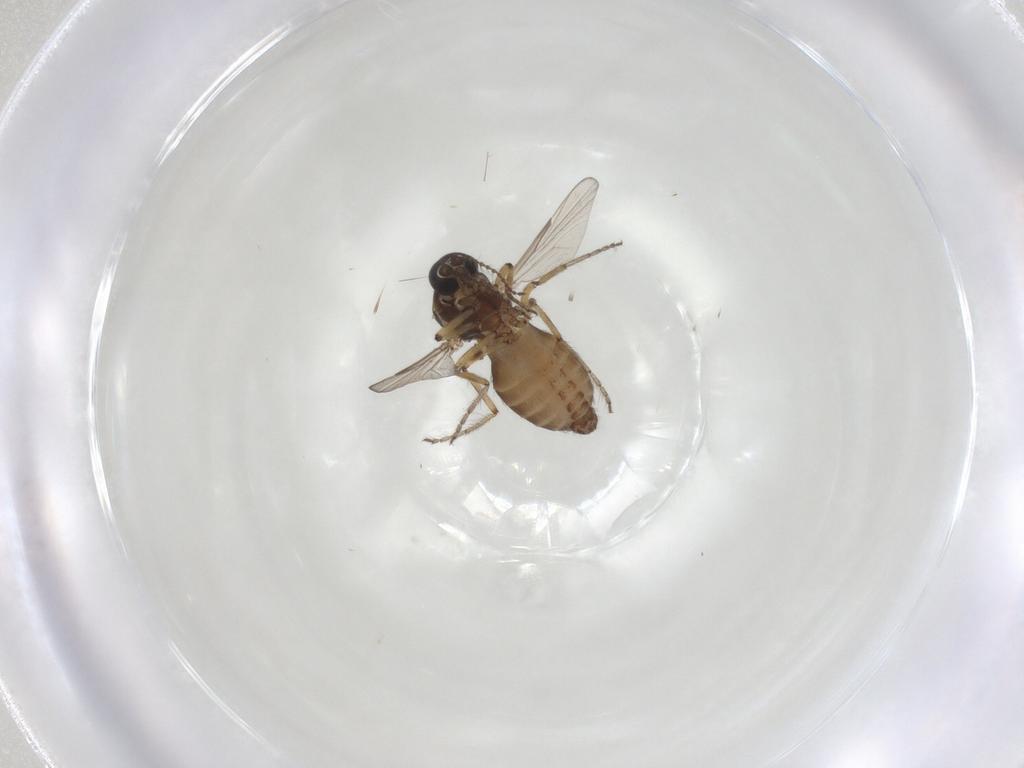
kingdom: Animalia
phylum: Arthropoda
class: Insecta
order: Diptera
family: Ceratopogonidae
